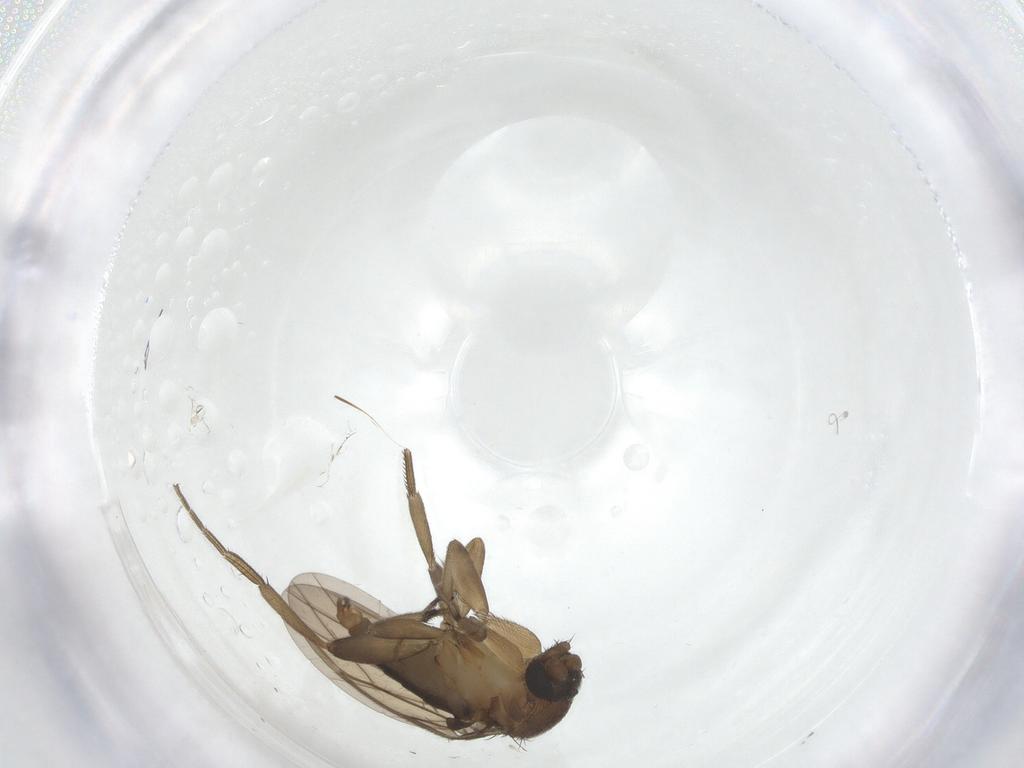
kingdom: Animalia
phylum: Arthropoda
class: Insecta
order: Diptera
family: Phoridae
